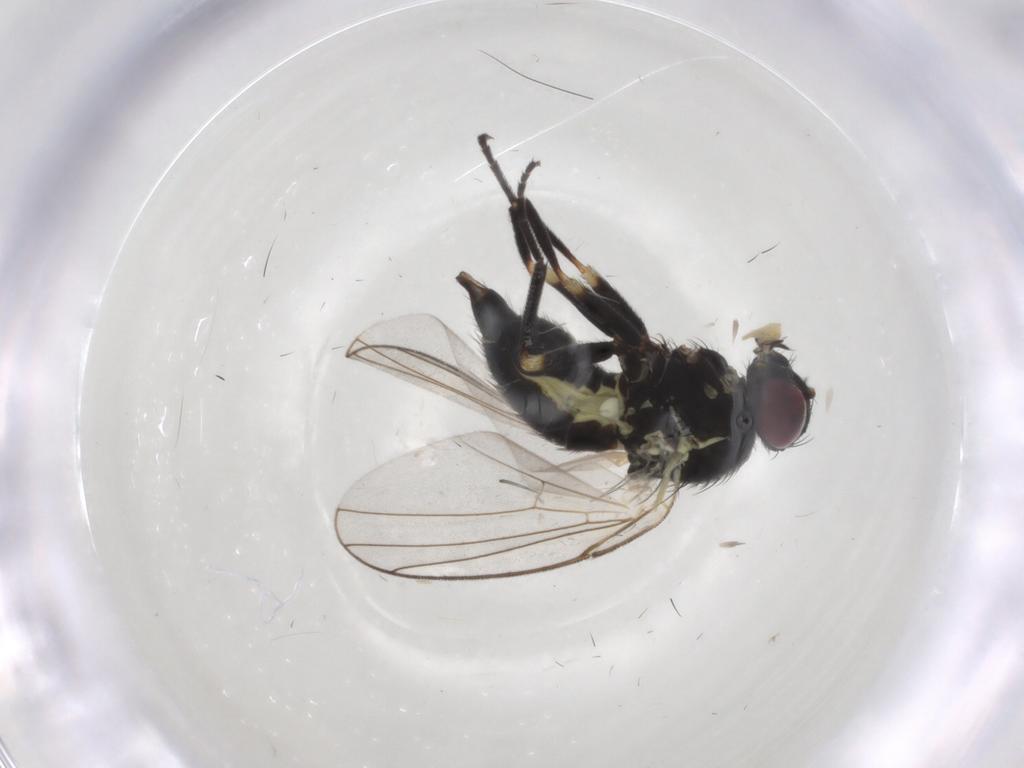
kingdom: Animalia
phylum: Arthropoda
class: Insecta
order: Diptera
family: Agromyzidae
